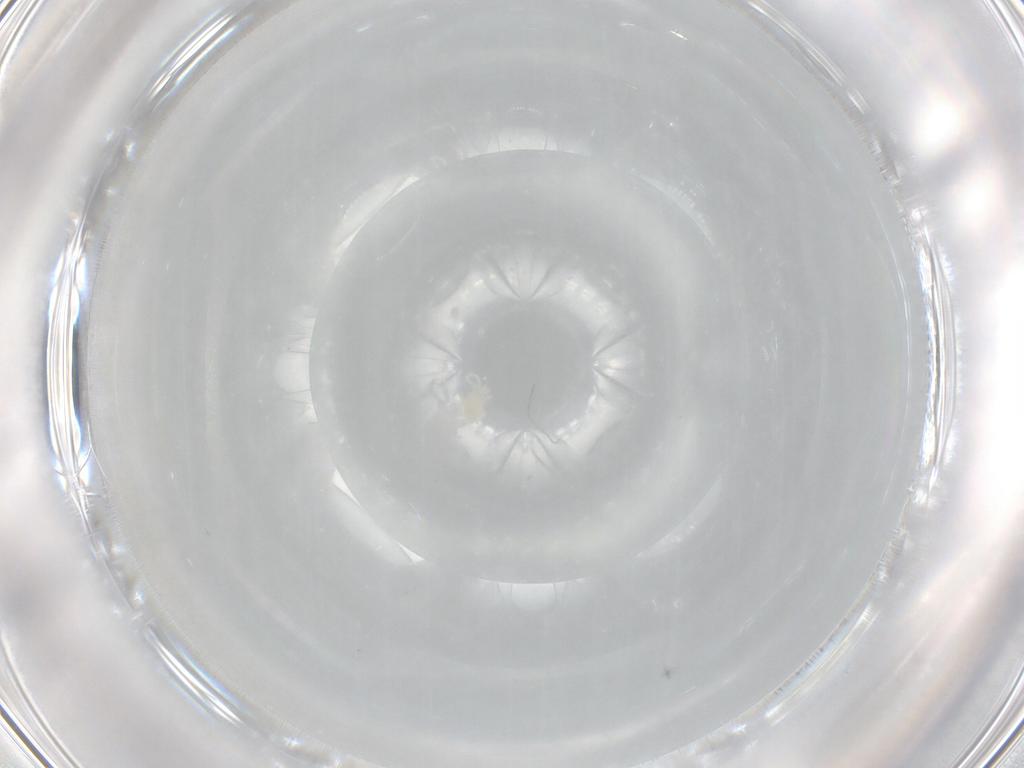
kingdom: Animalia
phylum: Arthropoda
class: Arachnida
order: Trombidiformes
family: Eupodidae
